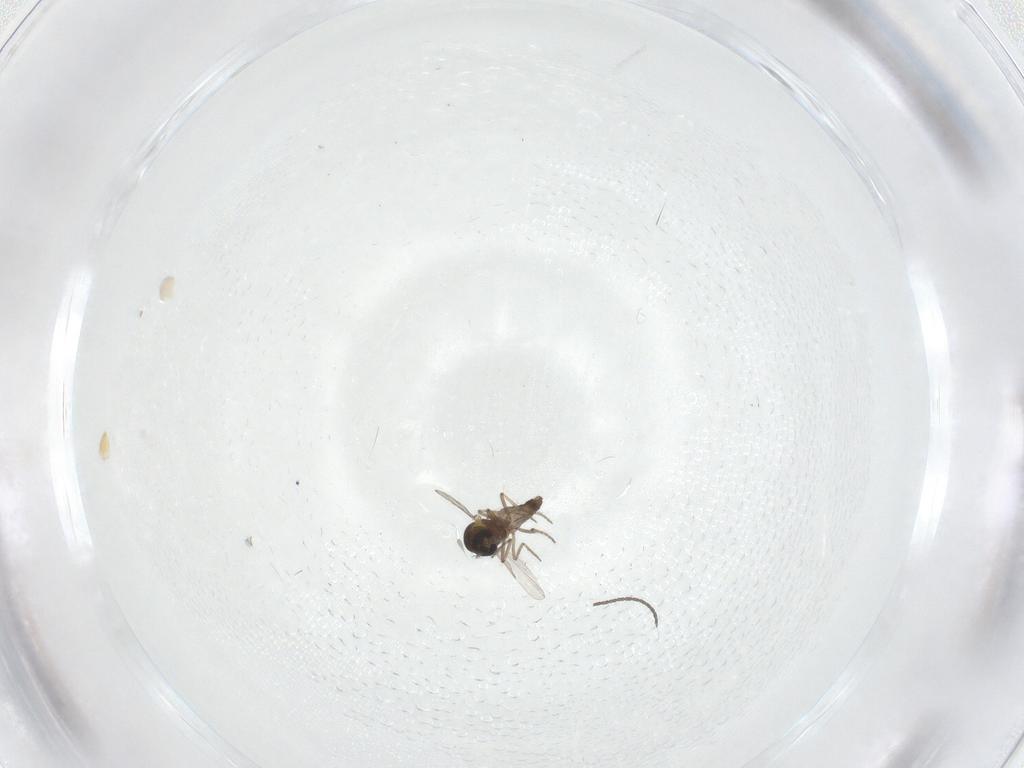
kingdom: Animalia
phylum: Arthropoda
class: Insecta
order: Diptera
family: Ceratopogonidae
